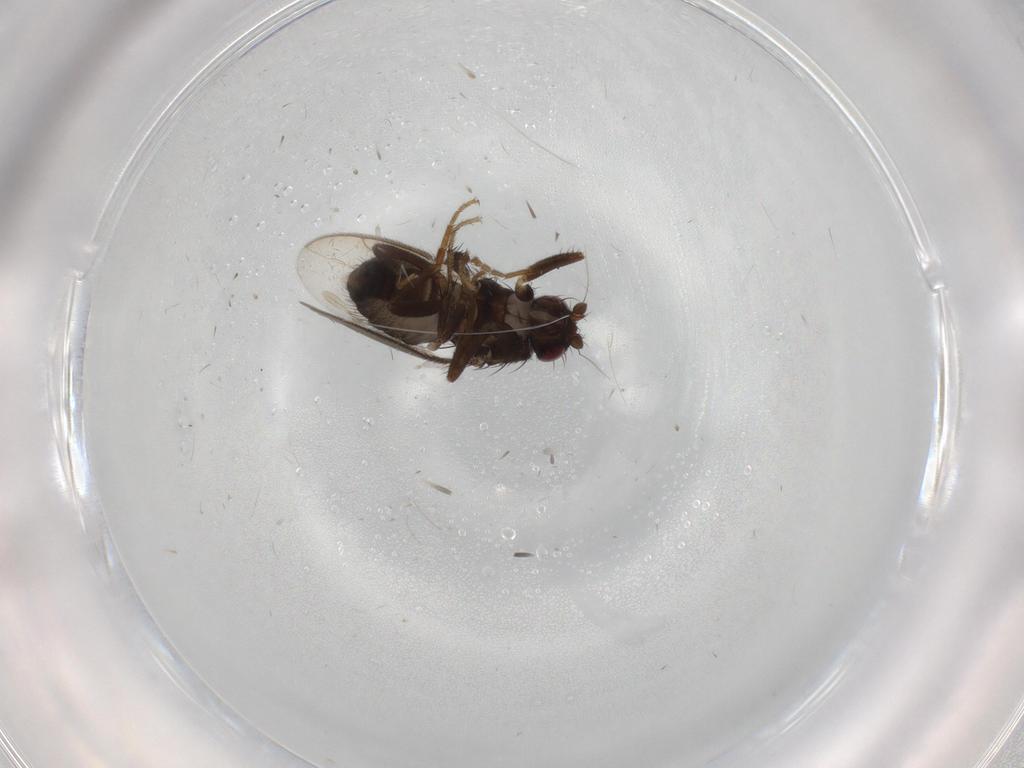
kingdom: Animalia
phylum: Arthropoda
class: Insecta
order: Diptera
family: Sphaeroceridae
